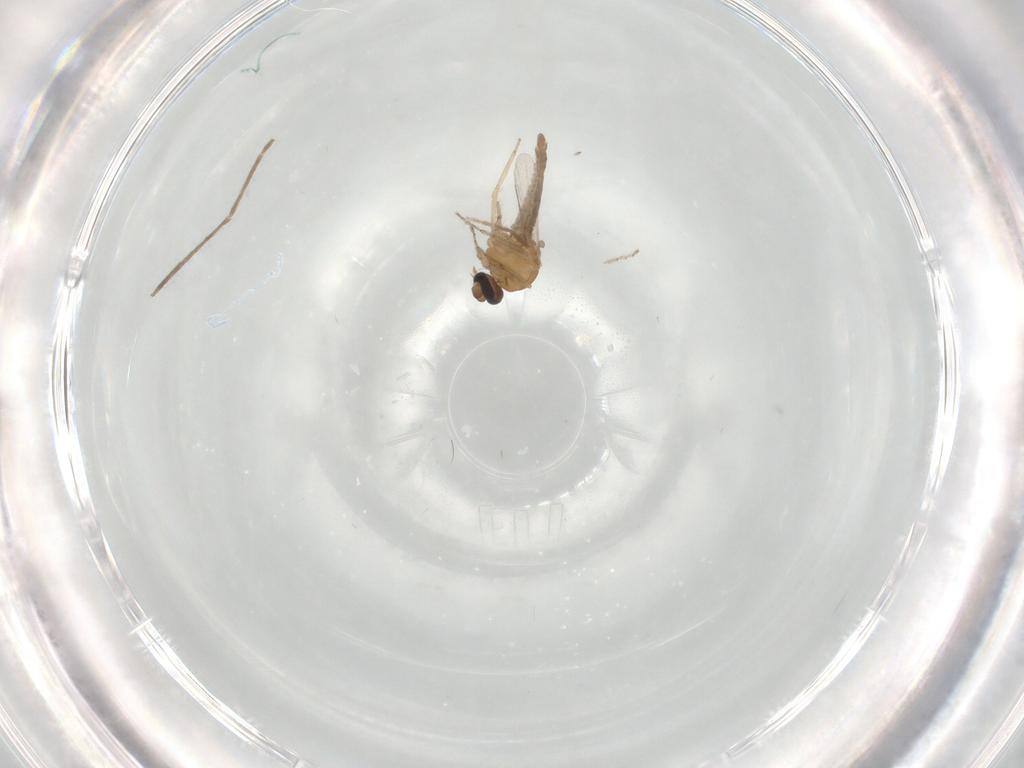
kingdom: Animalia
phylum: Arthropoda
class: Insecta
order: Diptera
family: Ceratopogonidae
